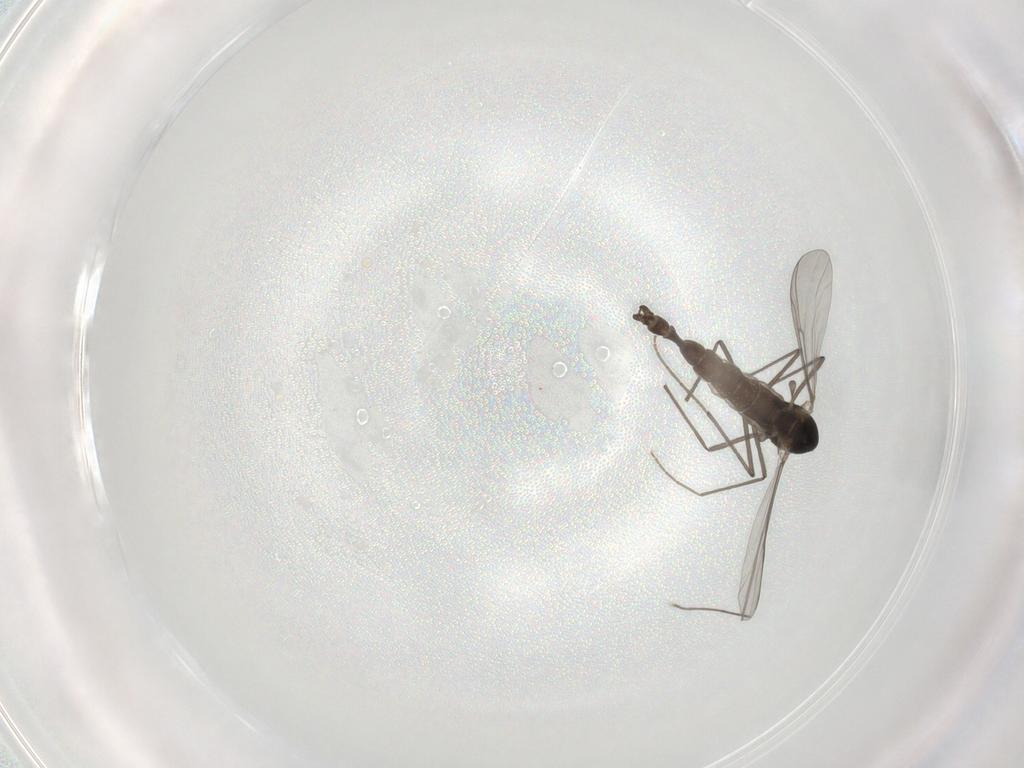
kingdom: Animalia
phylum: Arthropoda
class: Insecta
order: Diptera
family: Chironomidae
